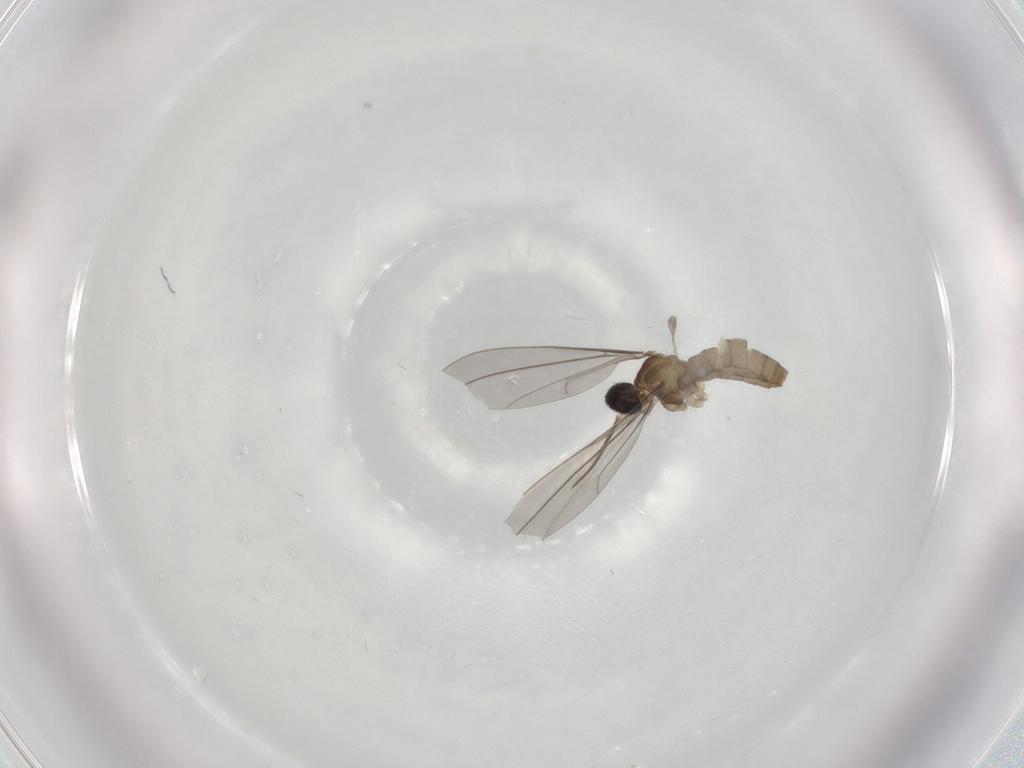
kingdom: Animalia
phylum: Arthropoda
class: Insecta
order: Diptera
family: Cecidomyiidae
